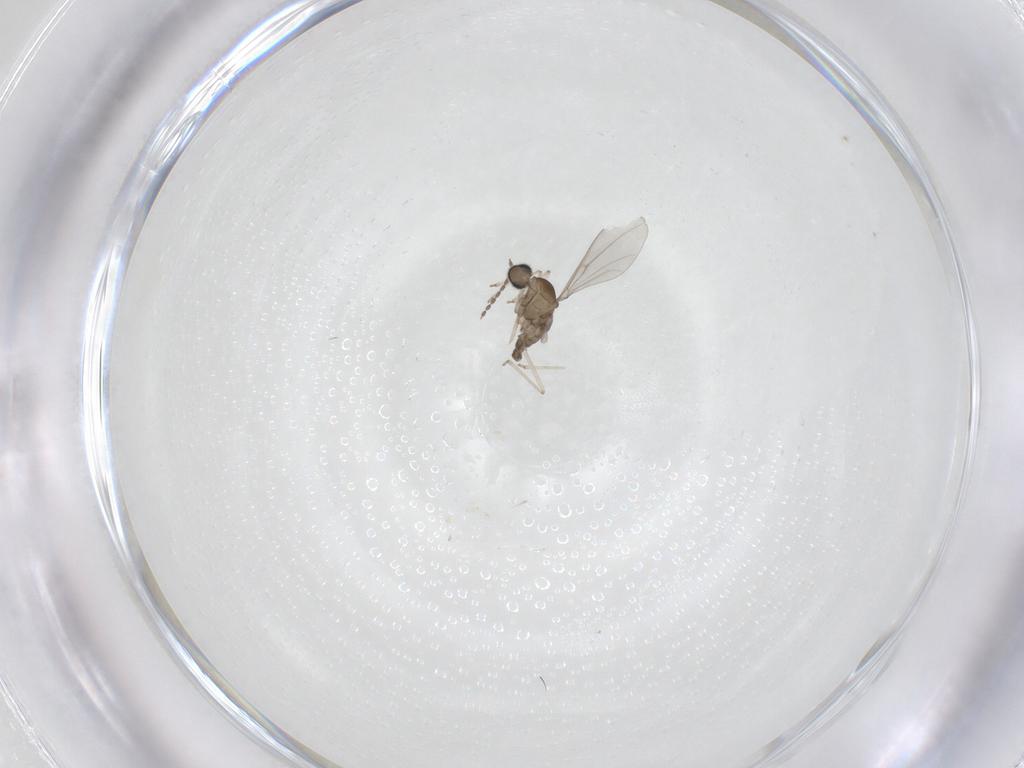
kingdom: Animalia
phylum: Arthropoda
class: Insecta
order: Diptera
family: Cecidomyiidae
